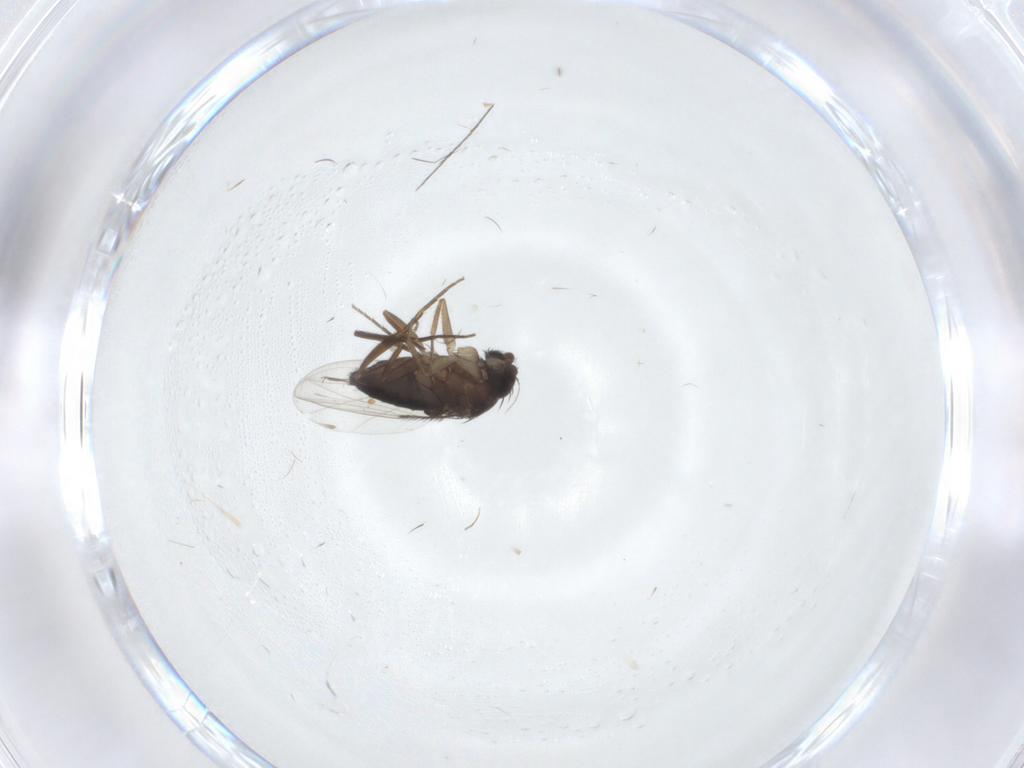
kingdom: Animalia
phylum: Arthropoda
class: Insecta
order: Diptera
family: Phoridae
